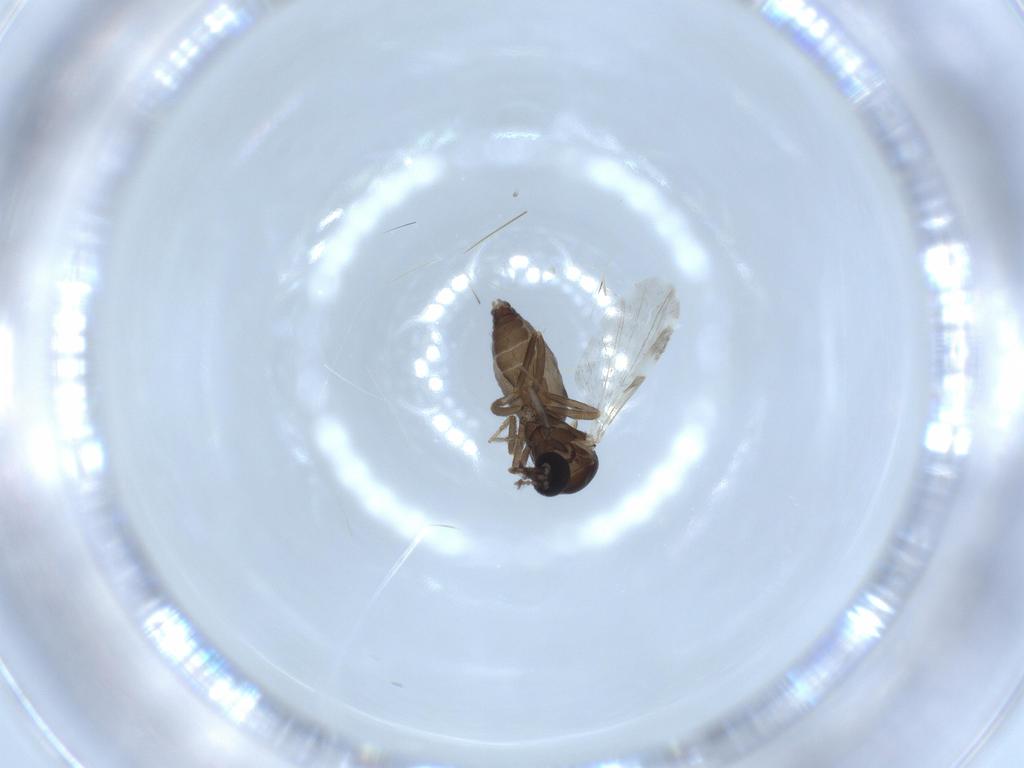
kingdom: Animalia
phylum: Arthropoda
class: Insecta
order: Diptera
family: Ceratopogonidae
